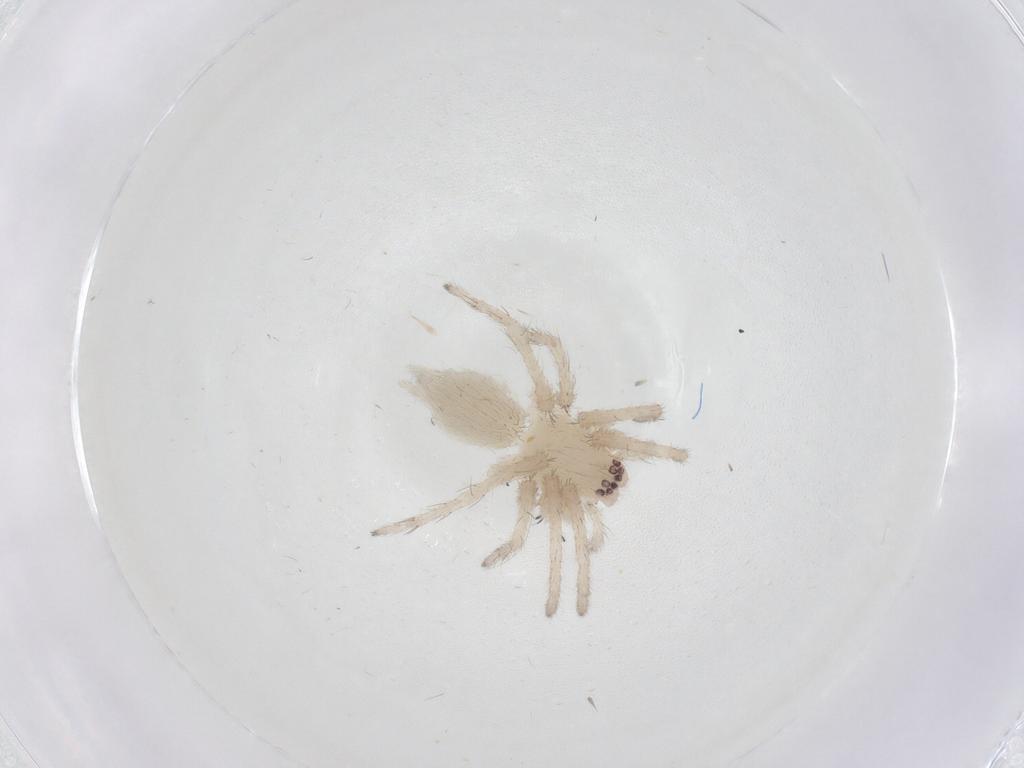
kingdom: Animalia
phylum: Arthropoda
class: Arachnida
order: Araneae
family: Clubionidae
